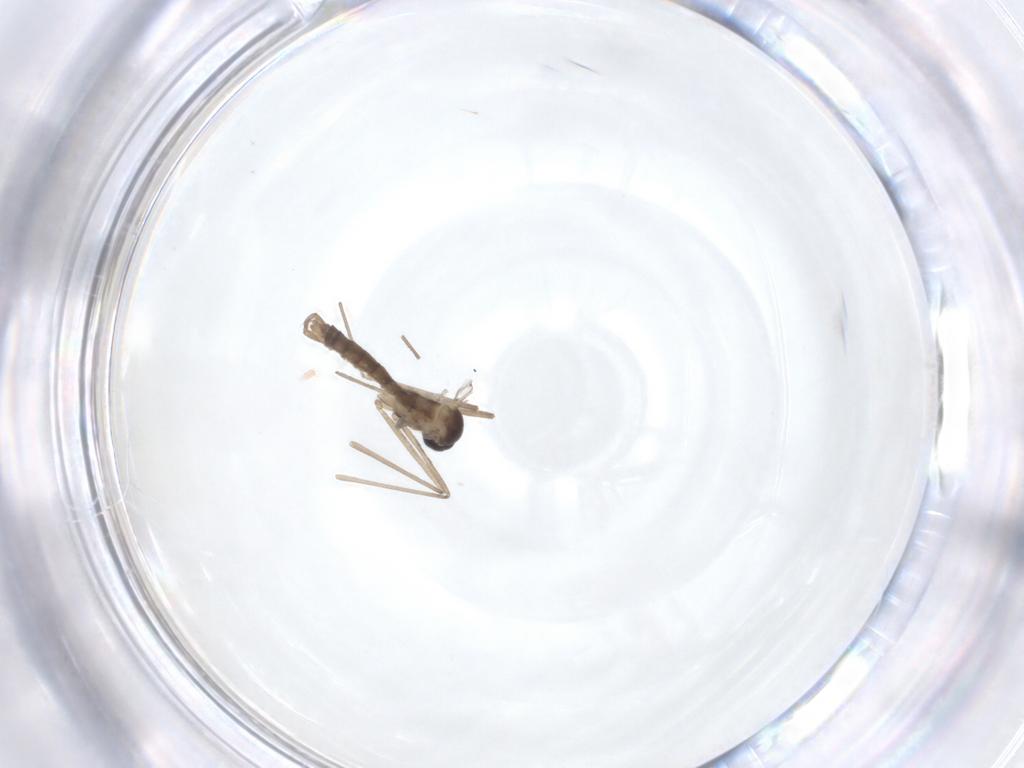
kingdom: Animalia
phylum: Arthropoda
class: Insecta
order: Diptera
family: Cecidomyiidae
